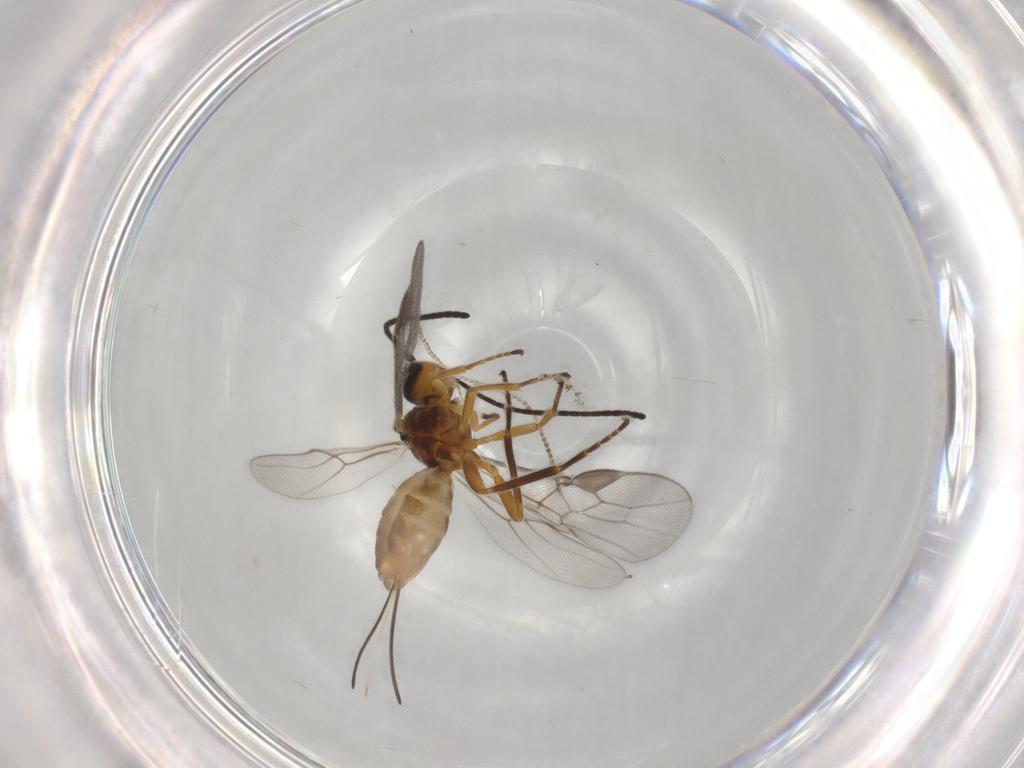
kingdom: Animalia
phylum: Arthropoda
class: Insecta
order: Hymenoptera
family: Braconidae
